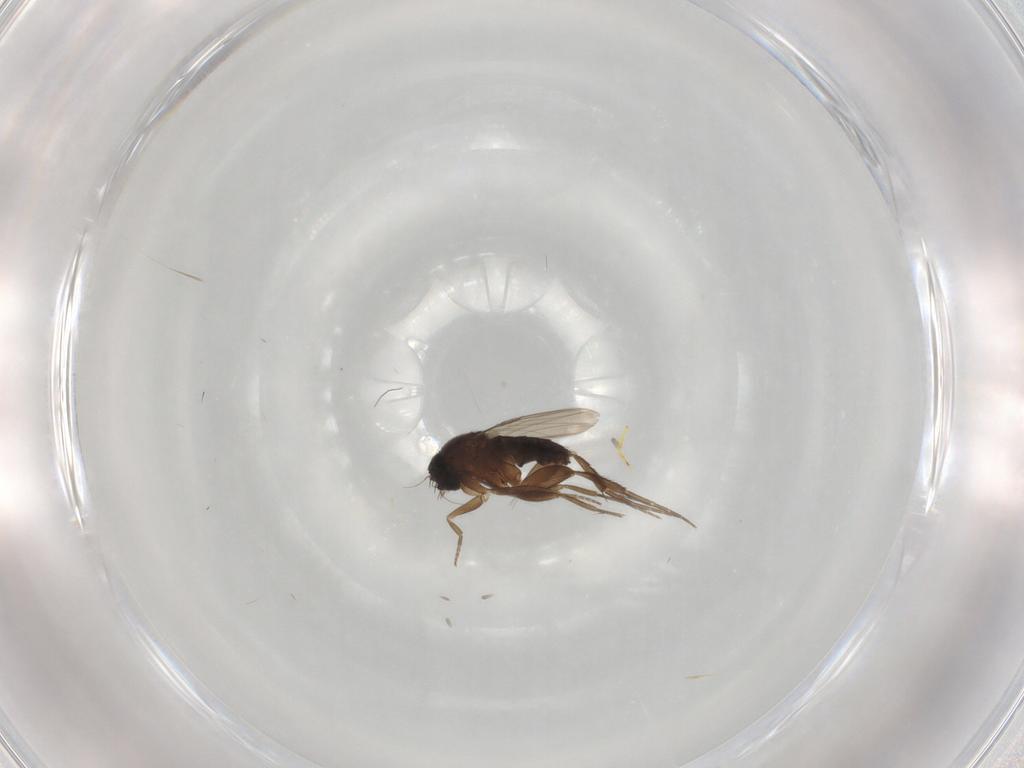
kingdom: Animalia
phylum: Arthropoda
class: Insecta
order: Diptera
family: Phoridae
